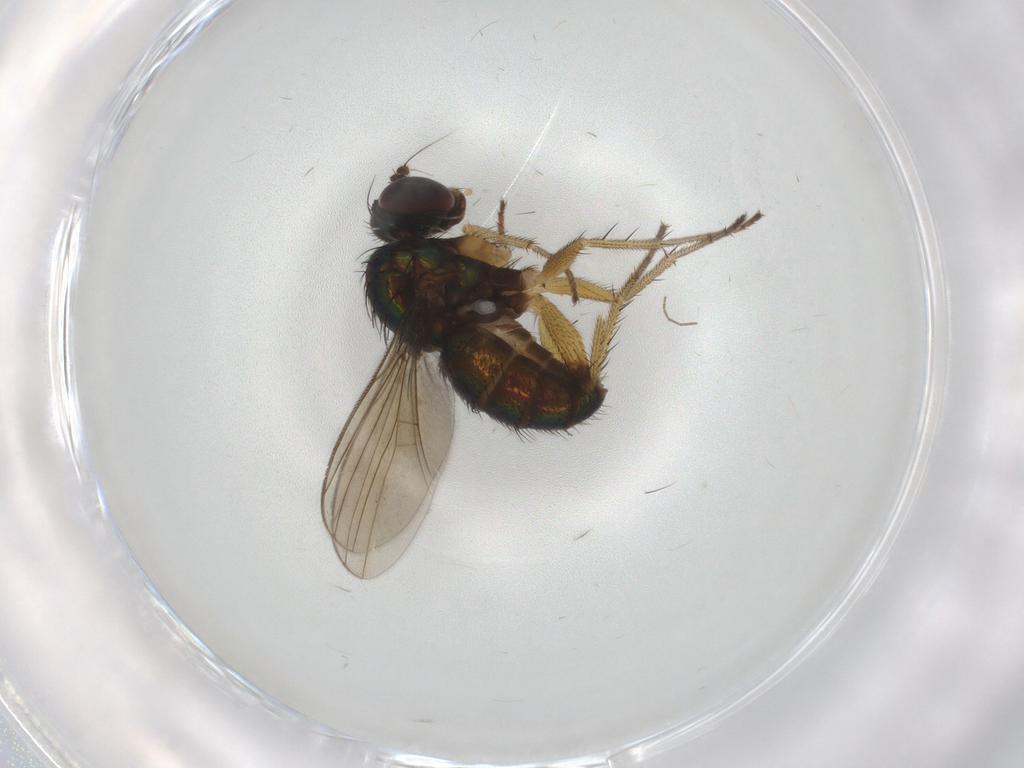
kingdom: Animalia
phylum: Arthropoda
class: Insecta
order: Diptera
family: Dolichopodidae
